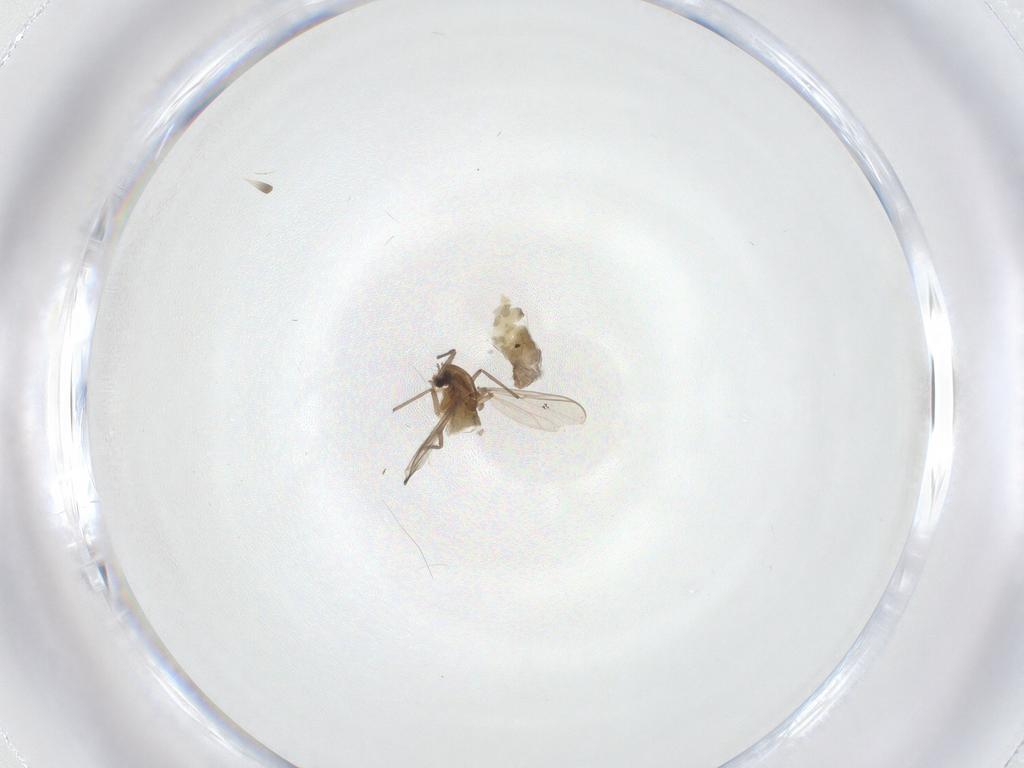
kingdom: Animalia
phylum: Arthropoda
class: Insecta
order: Diptera
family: Chironomidae
